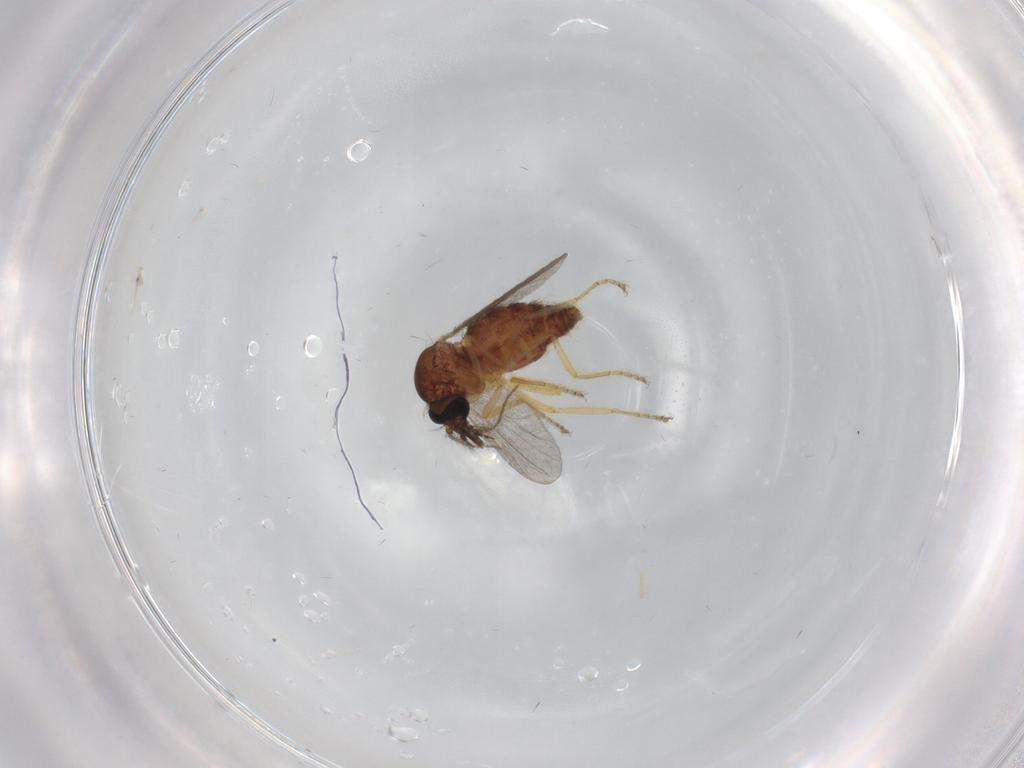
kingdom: Animalia
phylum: Arthropoda
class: Insecta
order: Diptera
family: Ceratopogonidae
